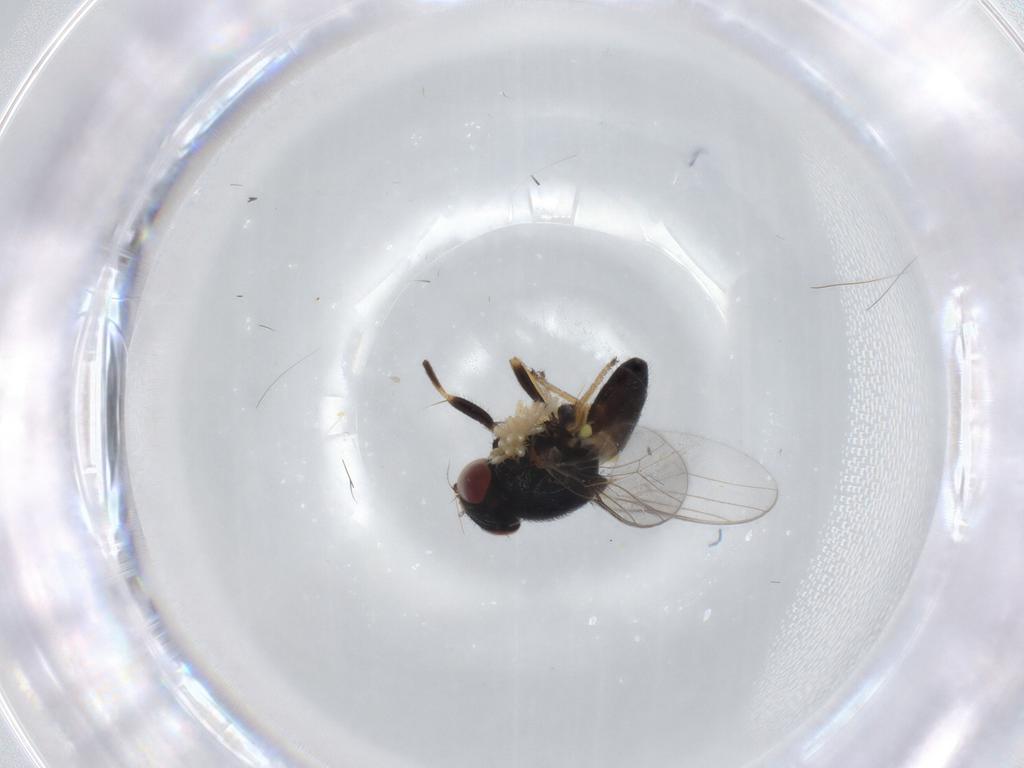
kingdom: Animalia
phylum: Arthropoda
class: Insecta
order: Diptera
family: Chloropidae
